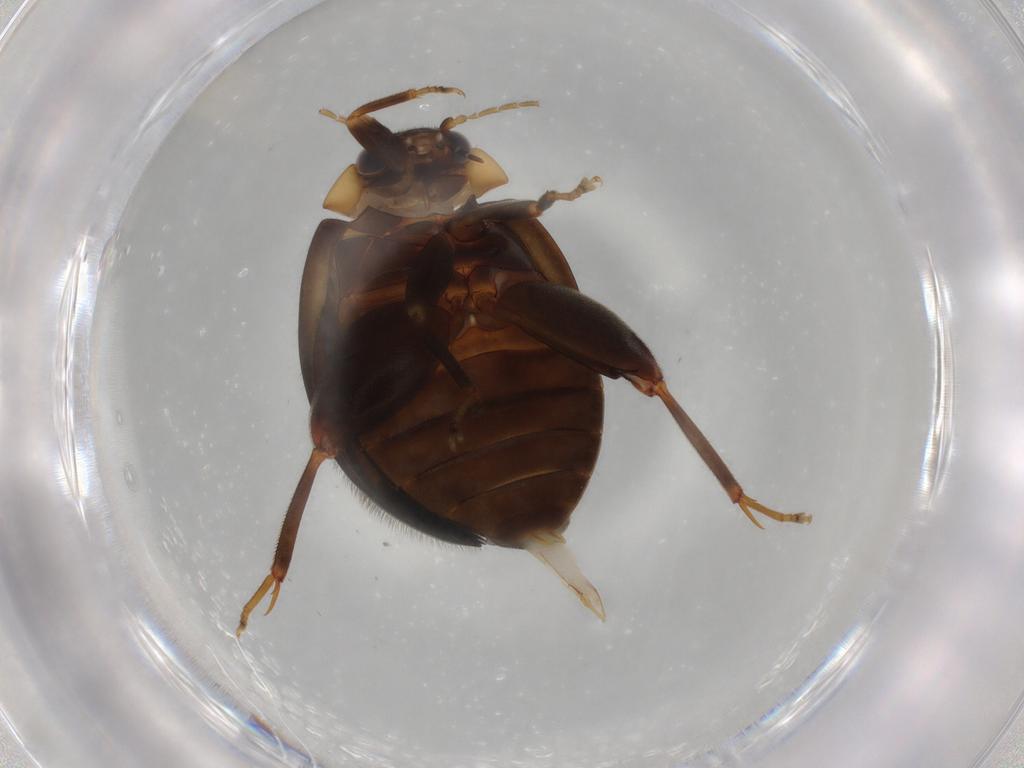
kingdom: Animalia
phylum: Arthropoda
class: Insecta
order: Coleoptera
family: Scirtidae
